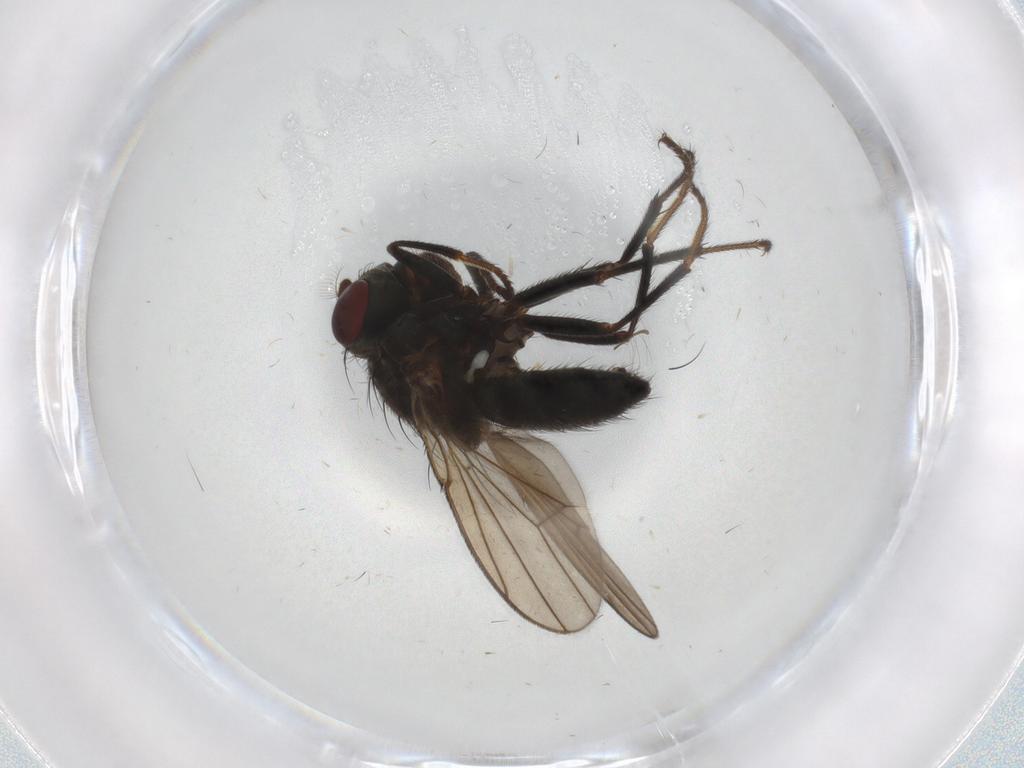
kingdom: Animalia
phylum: Arthropoda
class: Insecta
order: Diptera
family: Ephydridae
